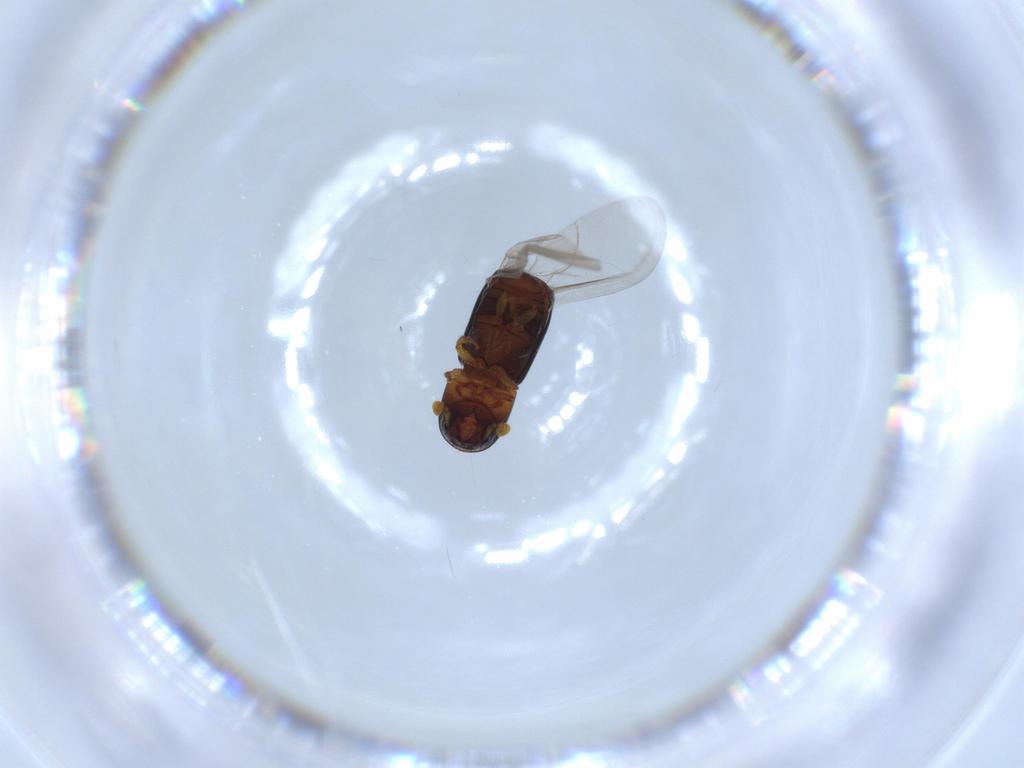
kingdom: Animalia
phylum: Arthropoda
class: Insecta
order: Coleoptera
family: Curculionidae
